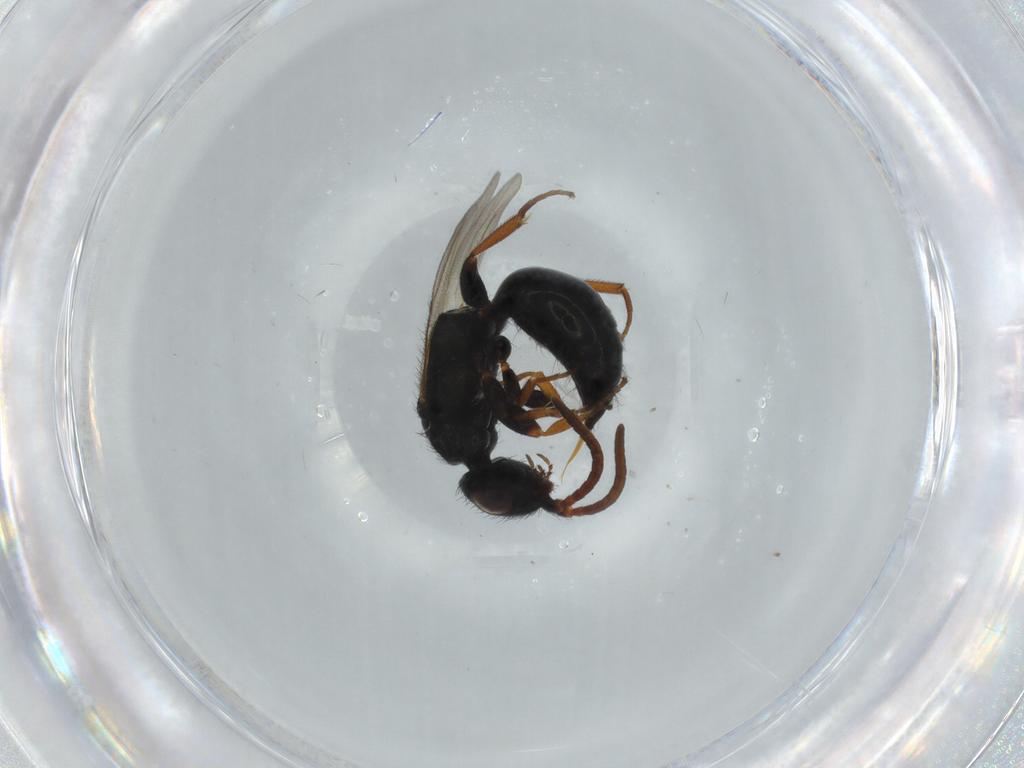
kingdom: Animalia
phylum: Arthropoda
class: Insecta
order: Hymenoptera
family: Bethylidae
